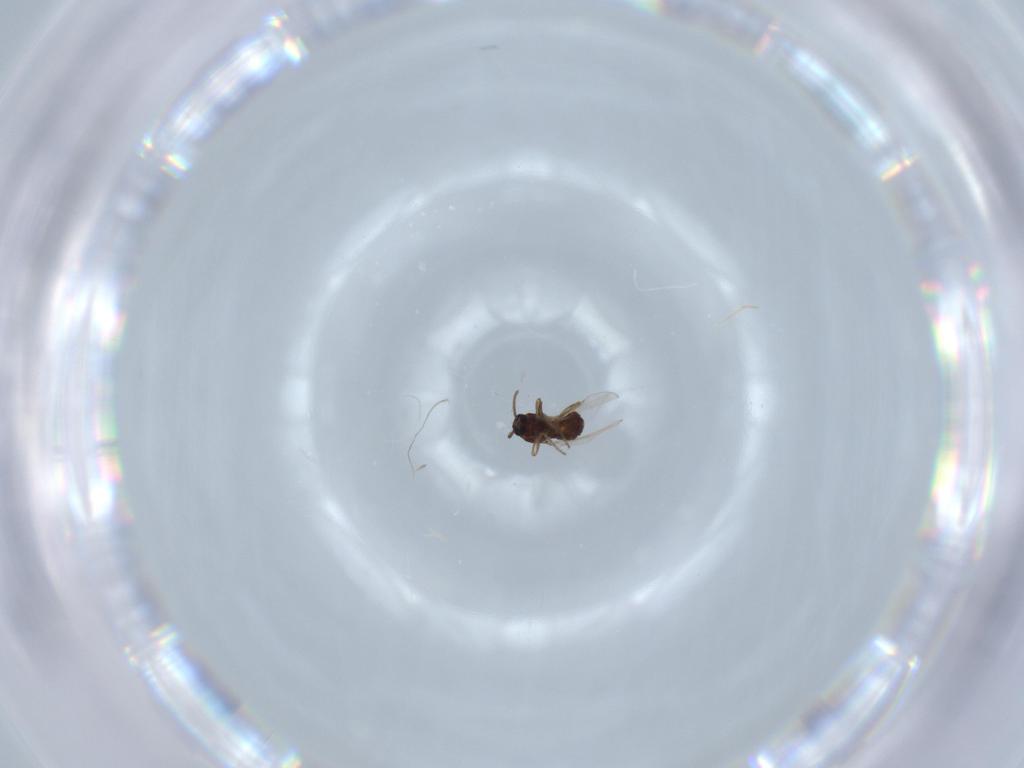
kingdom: Animalia
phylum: Arthropoda
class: Insecta
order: Diptera
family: Ceratopogonidae
